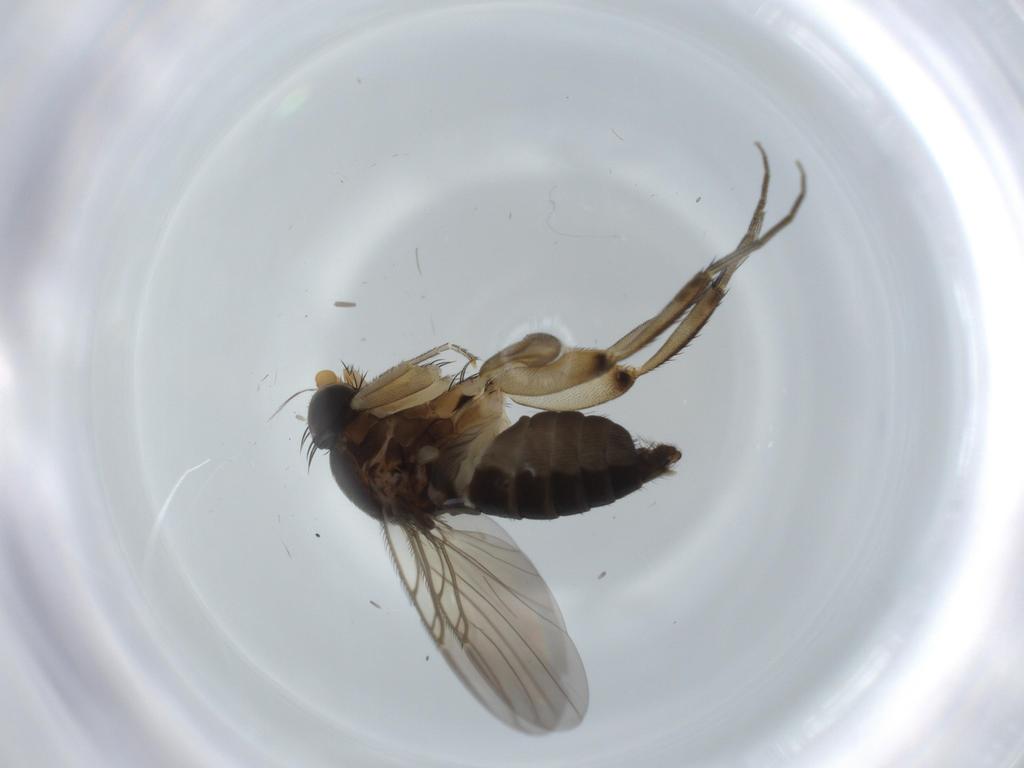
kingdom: Animalia
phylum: Arthropoda
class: Insecta
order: Diptera
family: Phoridae
